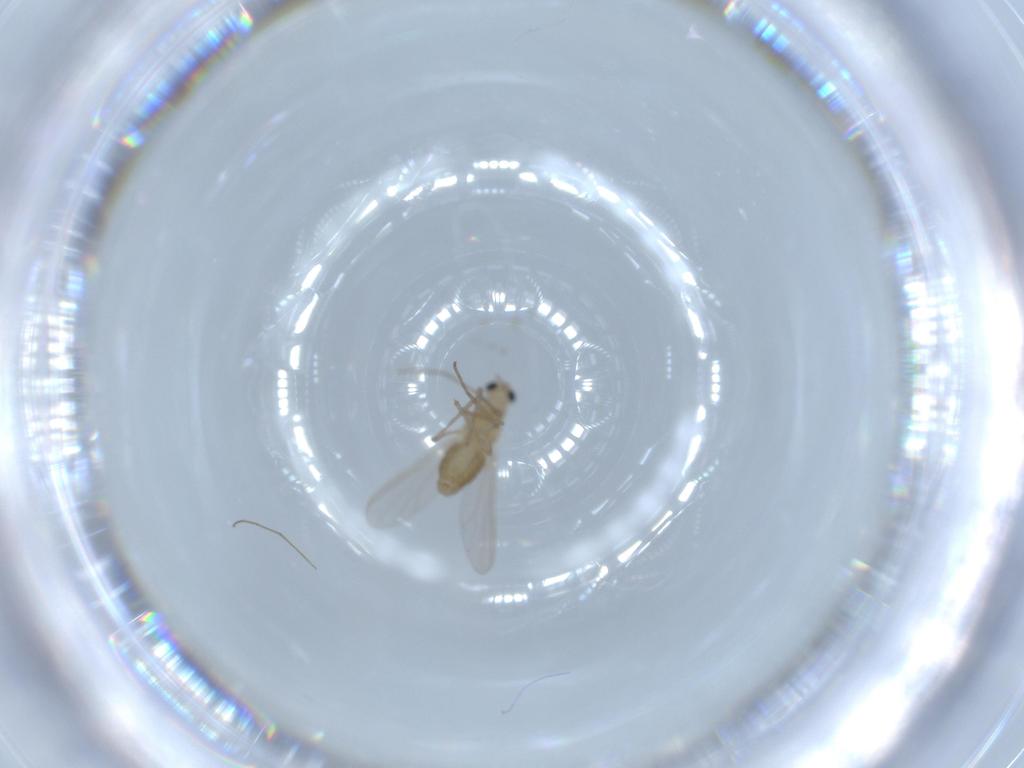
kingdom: Animalia
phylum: Arthropoda
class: Insecta
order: Diptera
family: Chironomidae
